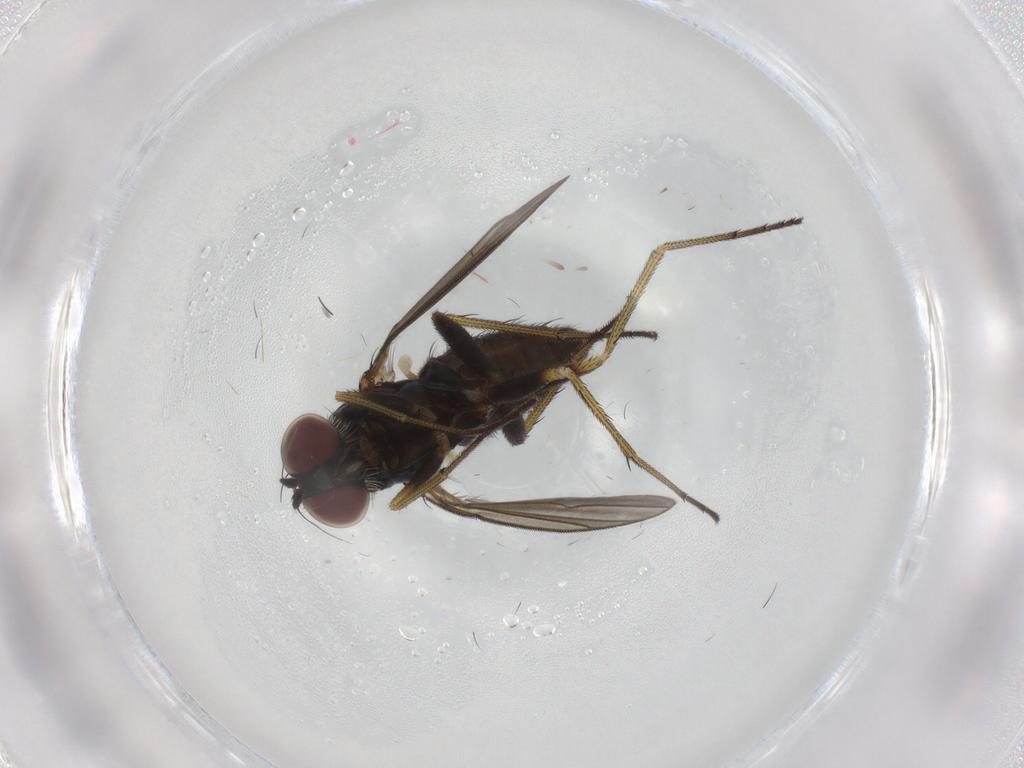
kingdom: Animalia
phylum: Arthropoda
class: Insecta
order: Diptera
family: Dolichopodidae
